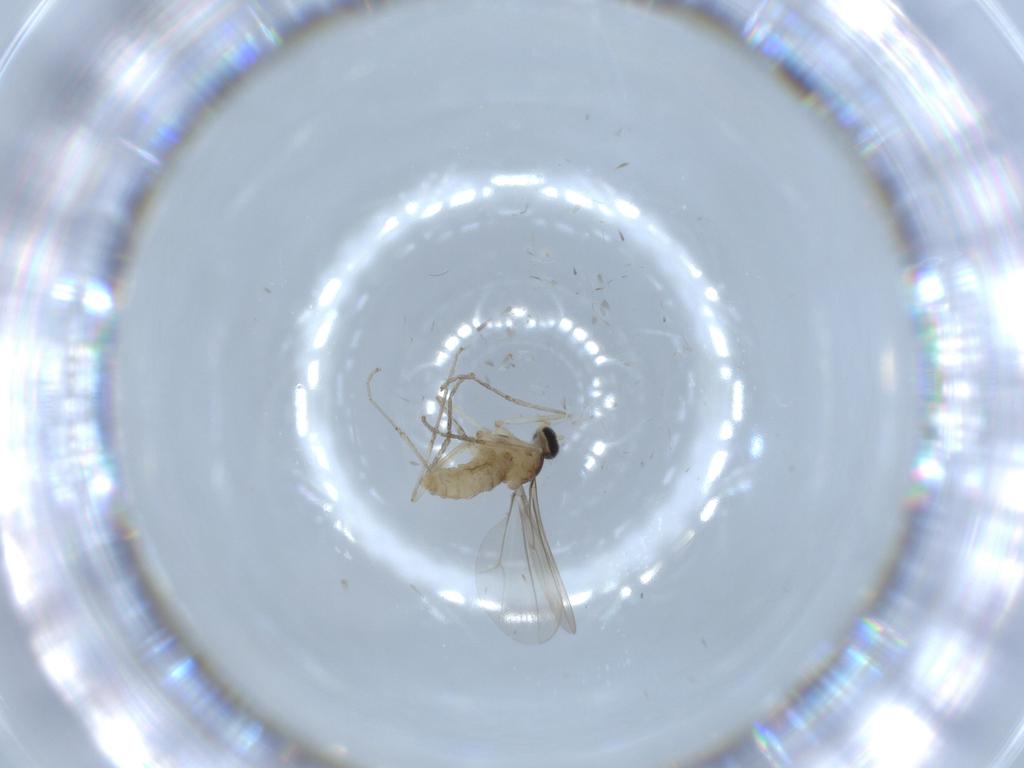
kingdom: Animalia
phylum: Arthropoda
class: Insecta
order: Diptera
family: Cecidomyiidae
